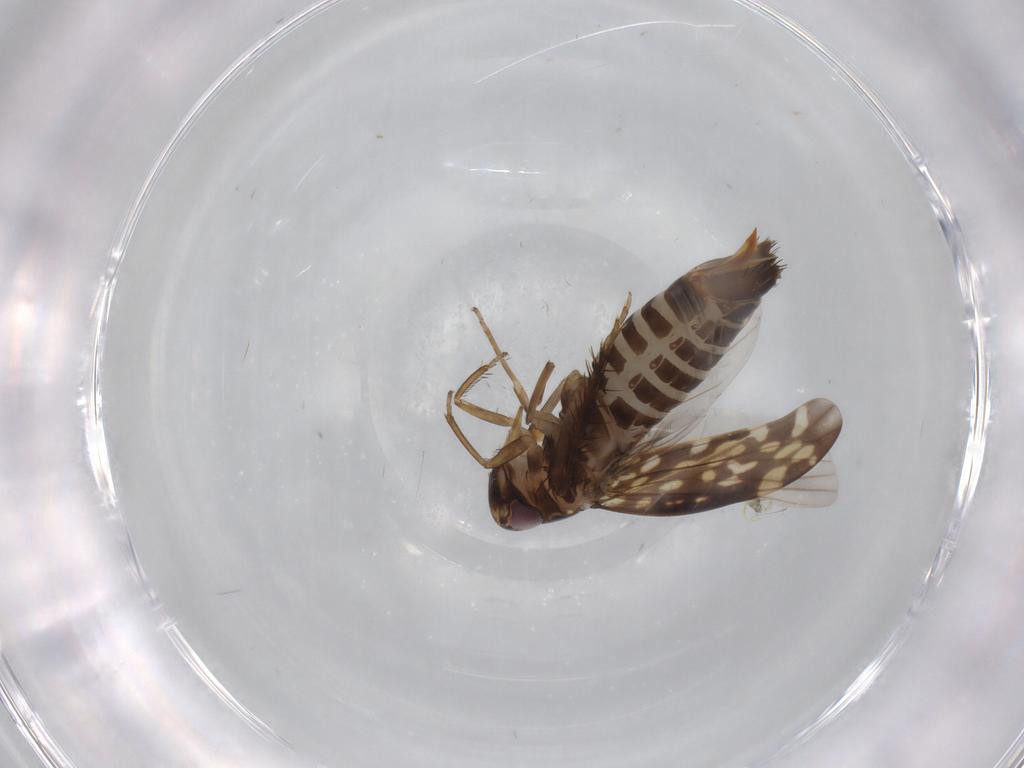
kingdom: Animalia
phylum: Arthropoda
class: Insecta
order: Hemiptera
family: Cicadellidae
